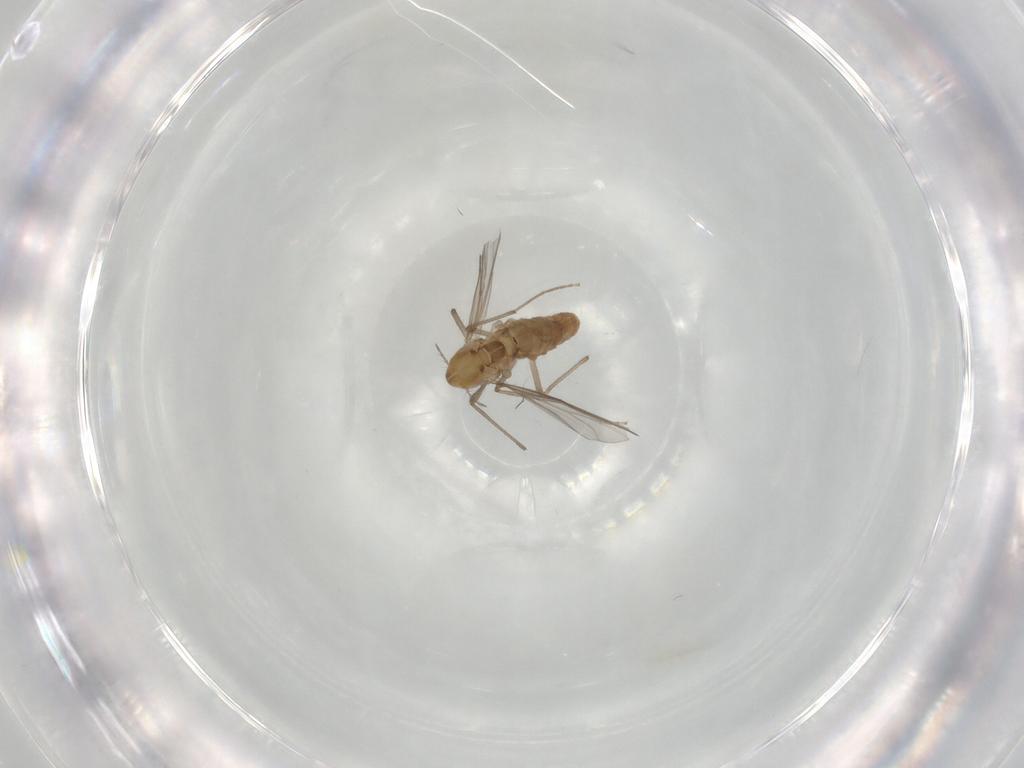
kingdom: Animalia
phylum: Arthropoda
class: Insecta
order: Diptera
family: Chironomidae
